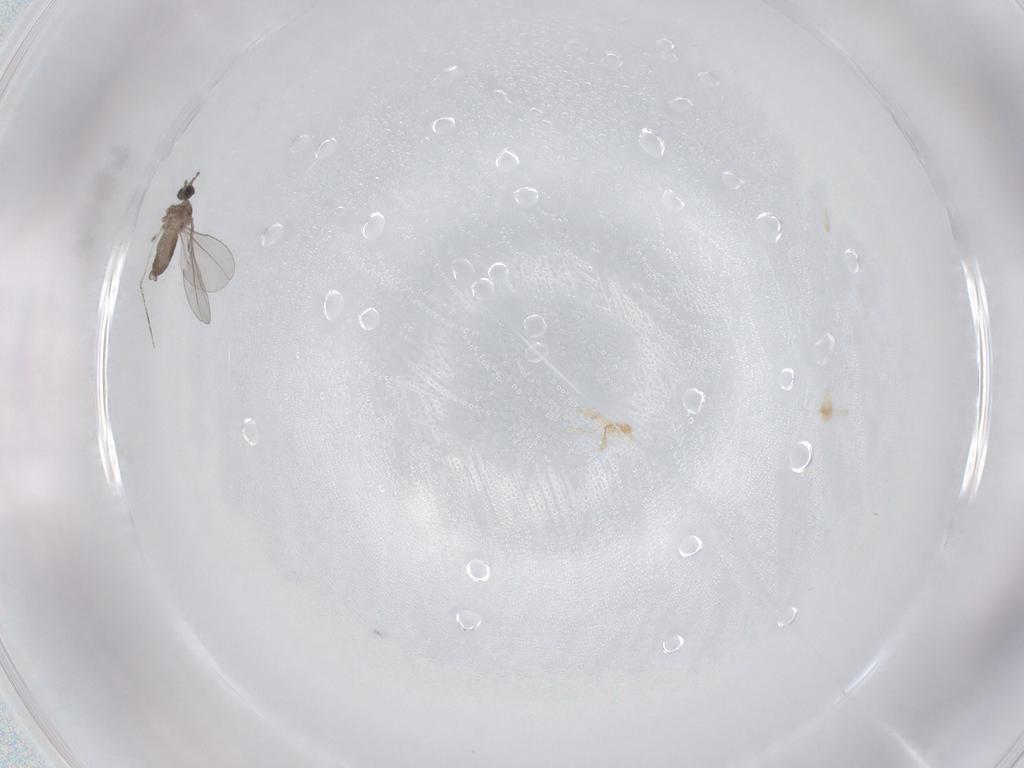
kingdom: Animalia
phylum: Arthropoda
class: Insecta
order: Diptera
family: Cecidomyiidae
